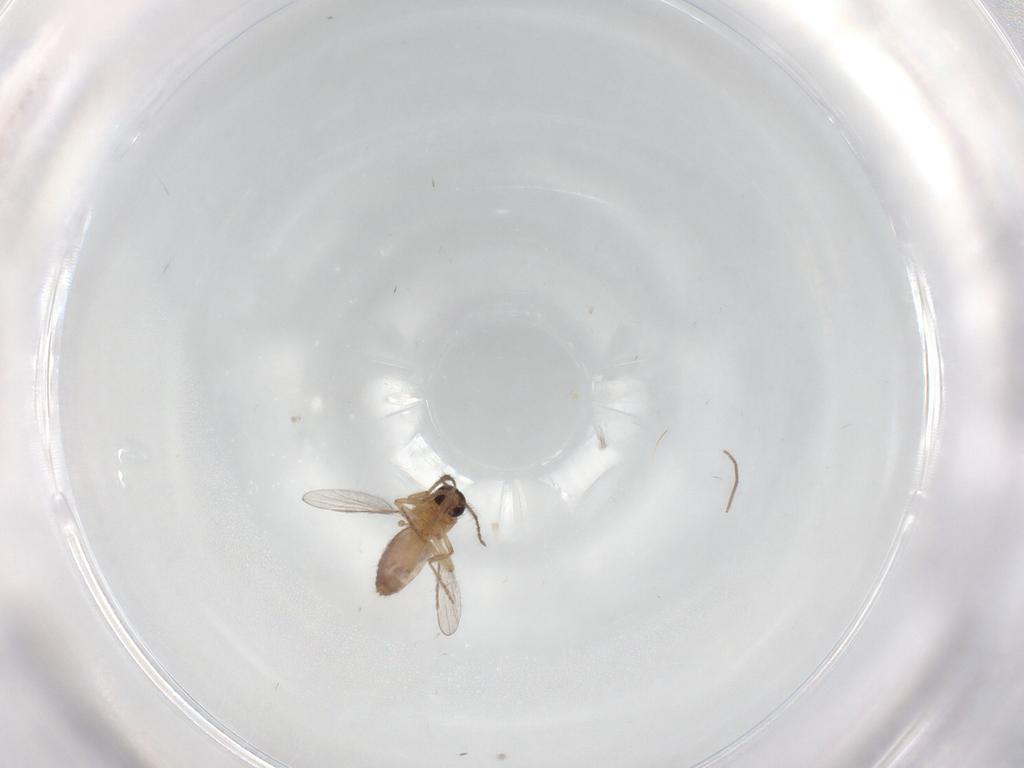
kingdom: Animalia
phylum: Arthropoda
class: Insecta
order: Diptera
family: Chironomidae
